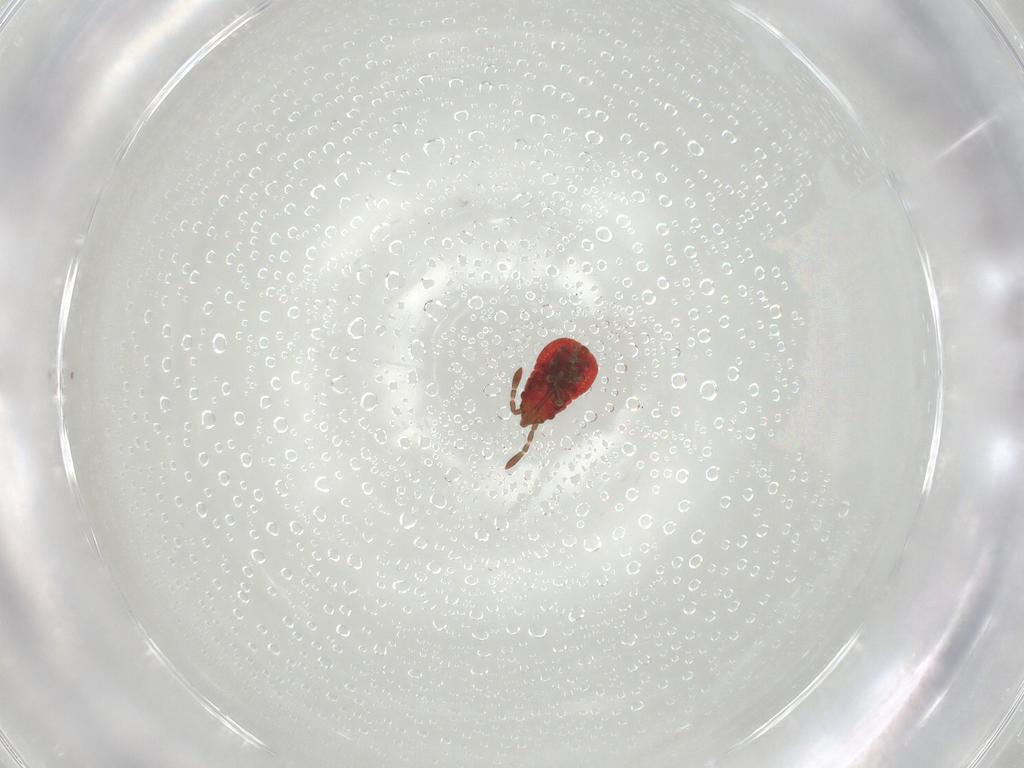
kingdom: Animalia
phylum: Arthropoda
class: Insecta
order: Hemiptera
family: Lygaeidae
